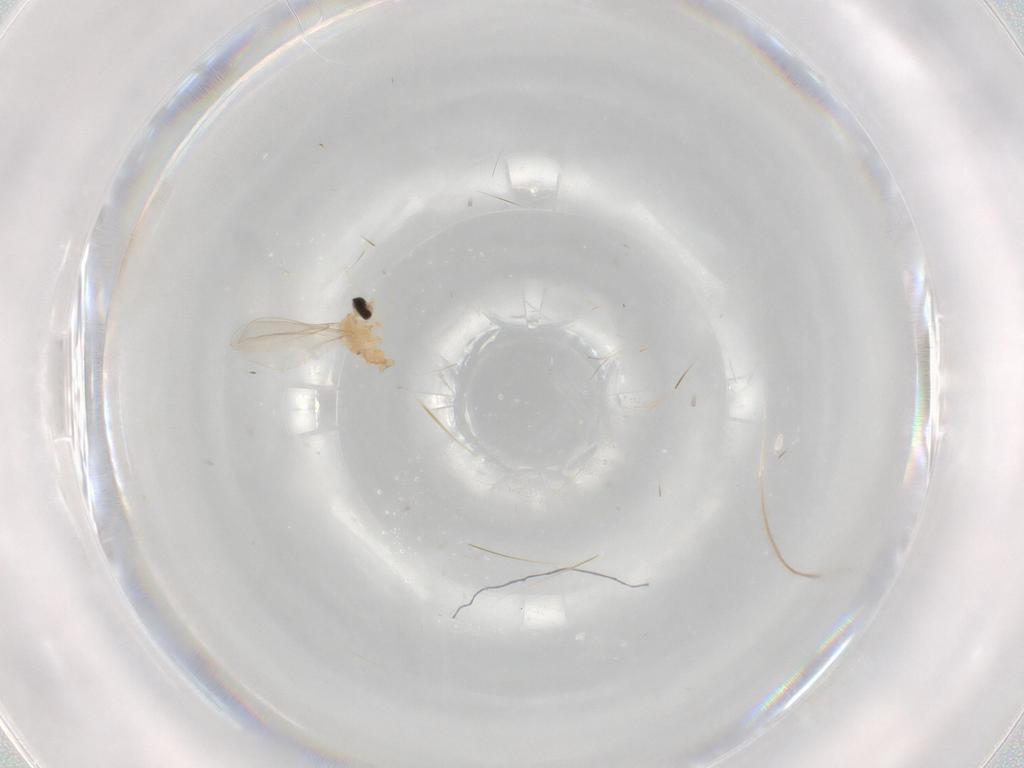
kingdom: Animalia
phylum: Arthropoda
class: Insecta
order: Diptera
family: Cecidomyiidae
